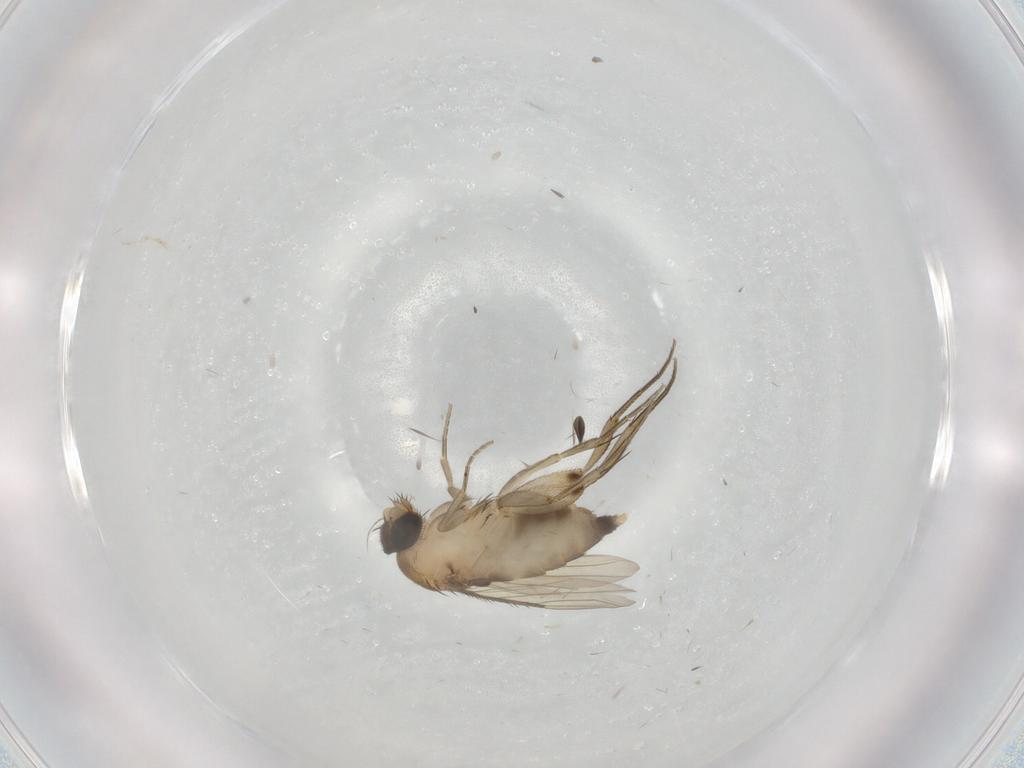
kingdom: Animalia
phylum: Arthropoda
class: Insecta
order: Diptera
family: Phoridae
